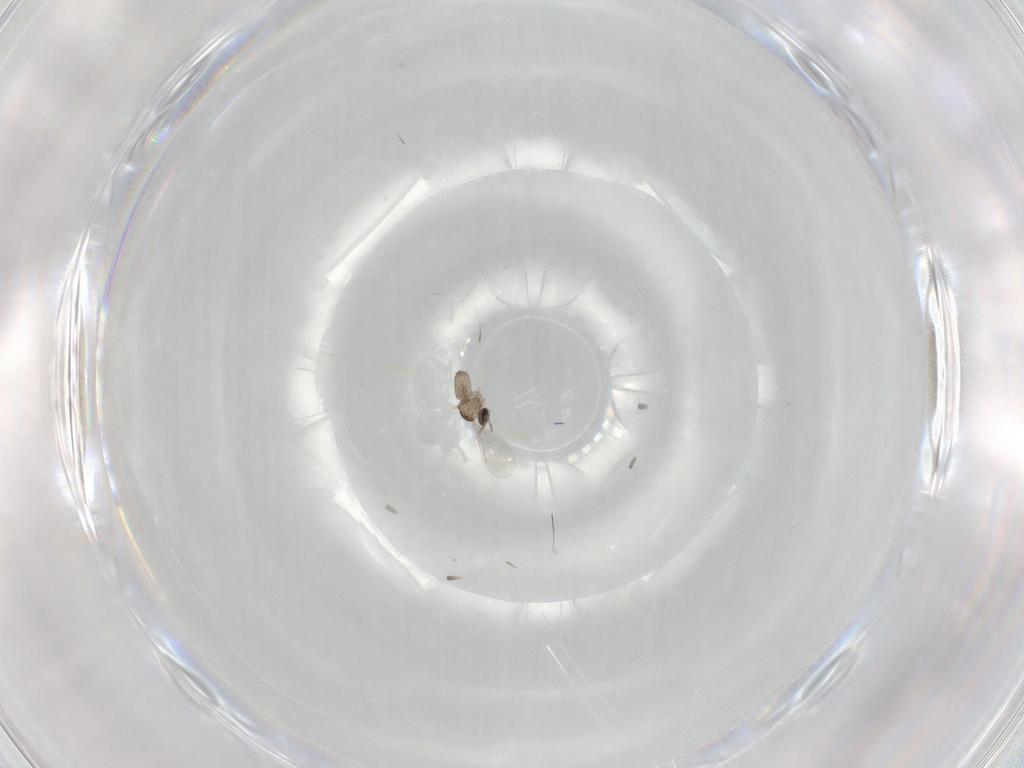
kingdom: Animalia
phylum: Arthropoda
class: Insecta
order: Diptera
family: Cecidomyiidae
